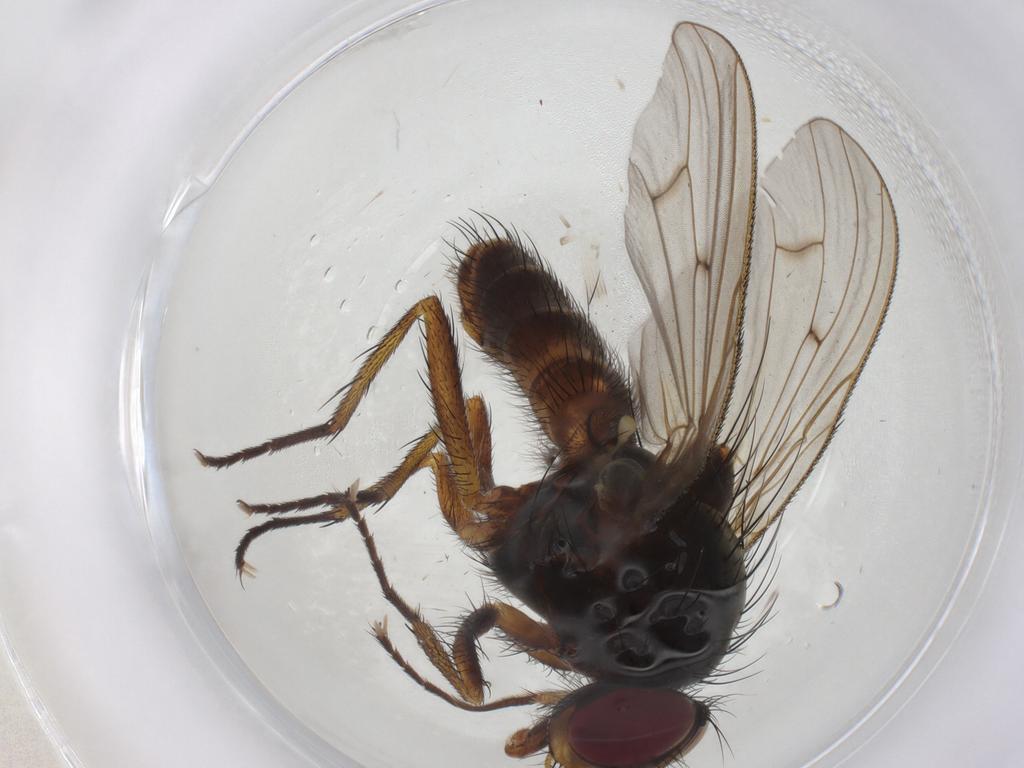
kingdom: Animalia
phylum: Arthropoda
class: Insecta
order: Diptera
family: Anthomyiidae
